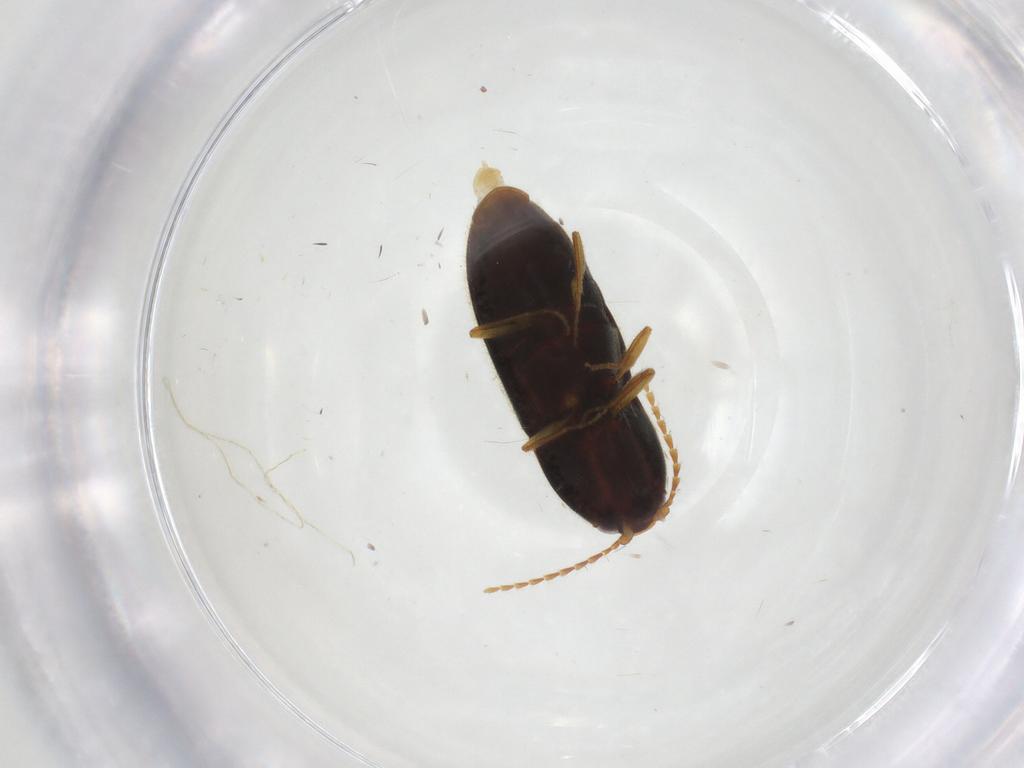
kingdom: Animalia
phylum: Arthropoda
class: Insecta
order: Coleoptera
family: Elateridae
